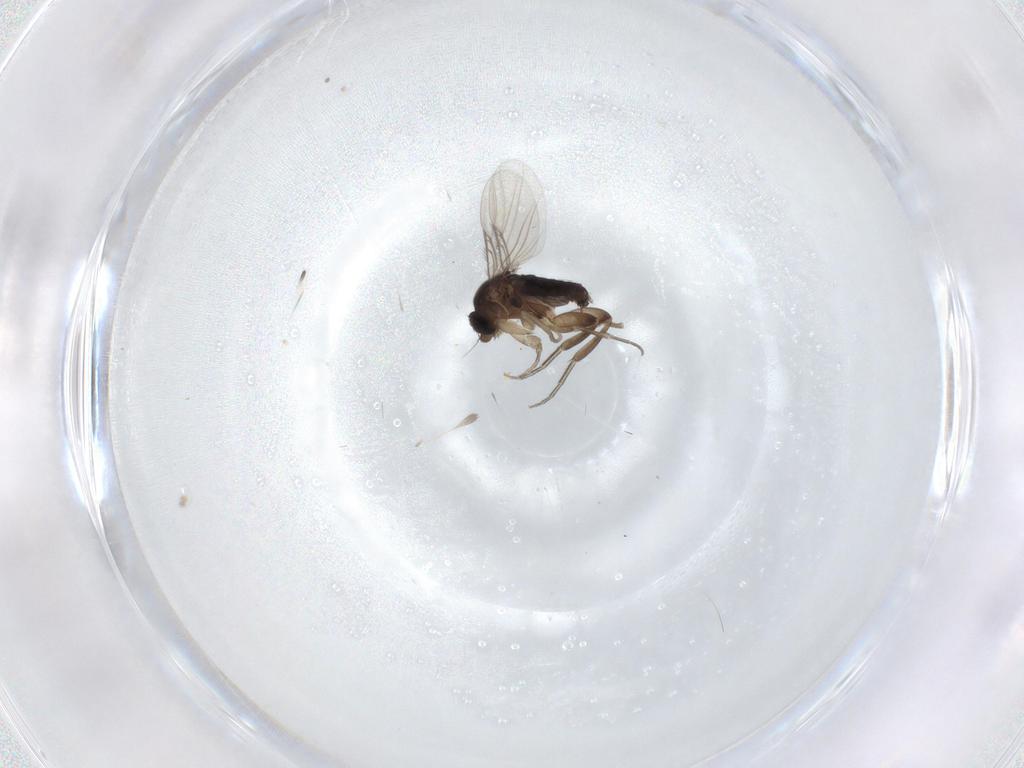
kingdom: Animalia
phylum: Arthropoda
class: Insecta
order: Diptera
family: Phoridae
